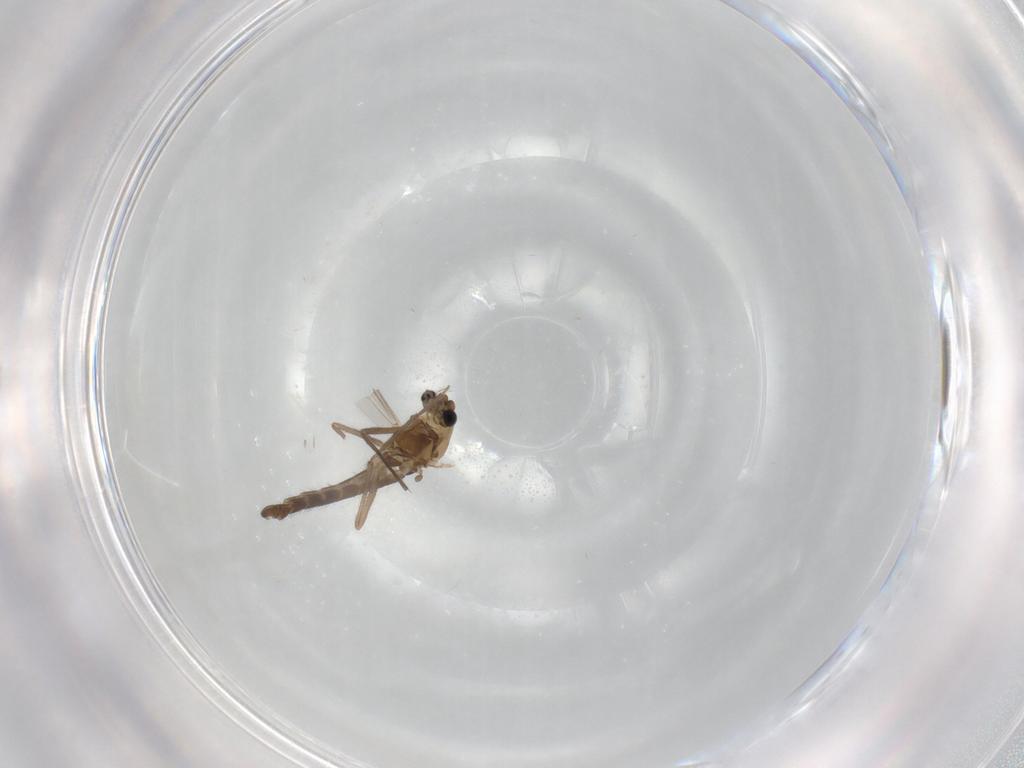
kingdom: Animalia
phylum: Arthropoda
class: Insecta
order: Diptera
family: Chironomidae
